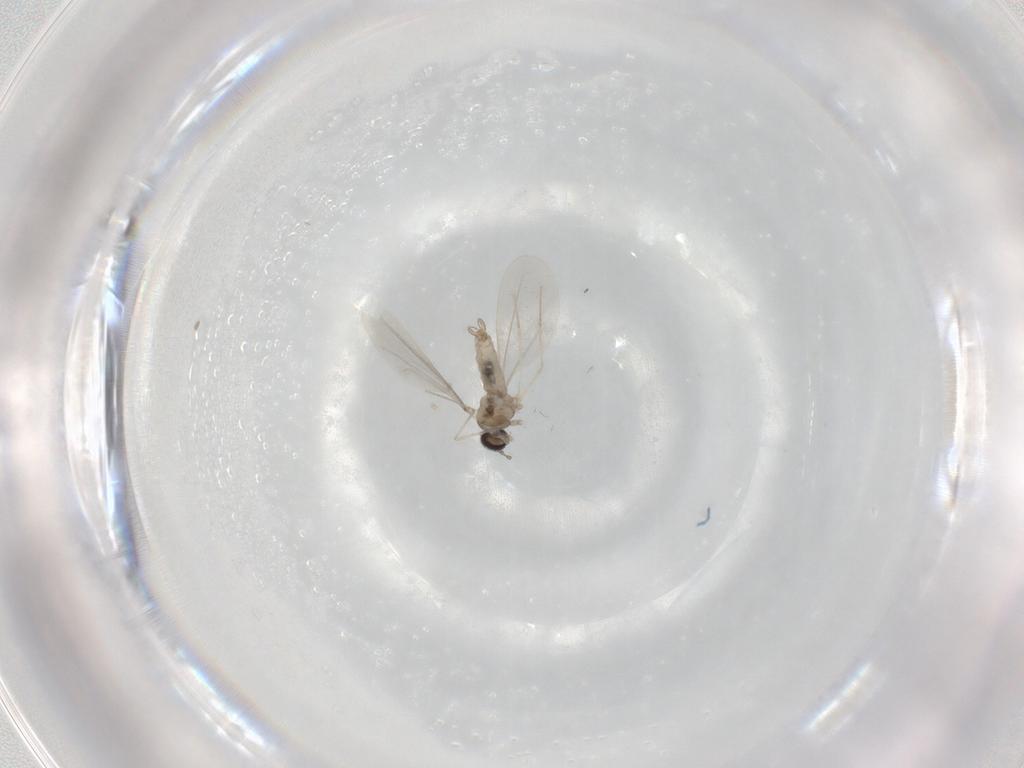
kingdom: Animalia
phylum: Arthropoda
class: Insecta
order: Diptera
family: Cecidomyiidae
